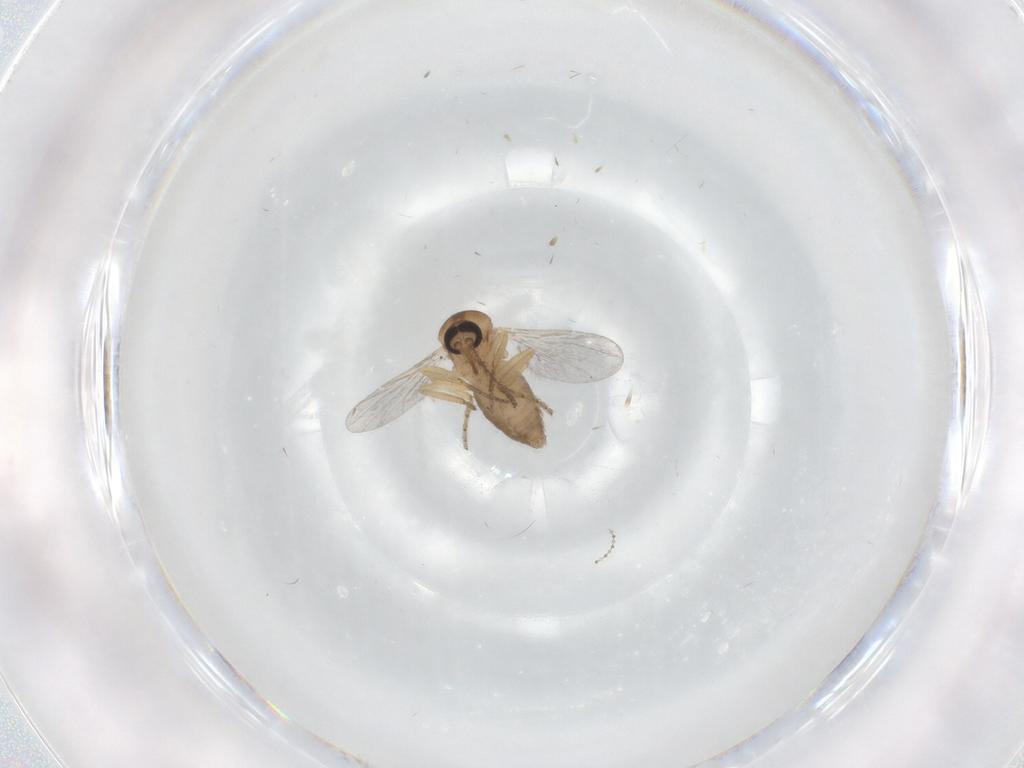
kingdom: Animalia
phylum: Arthropoda
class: Insecta
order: Diptera
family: Ceratopogonidae
